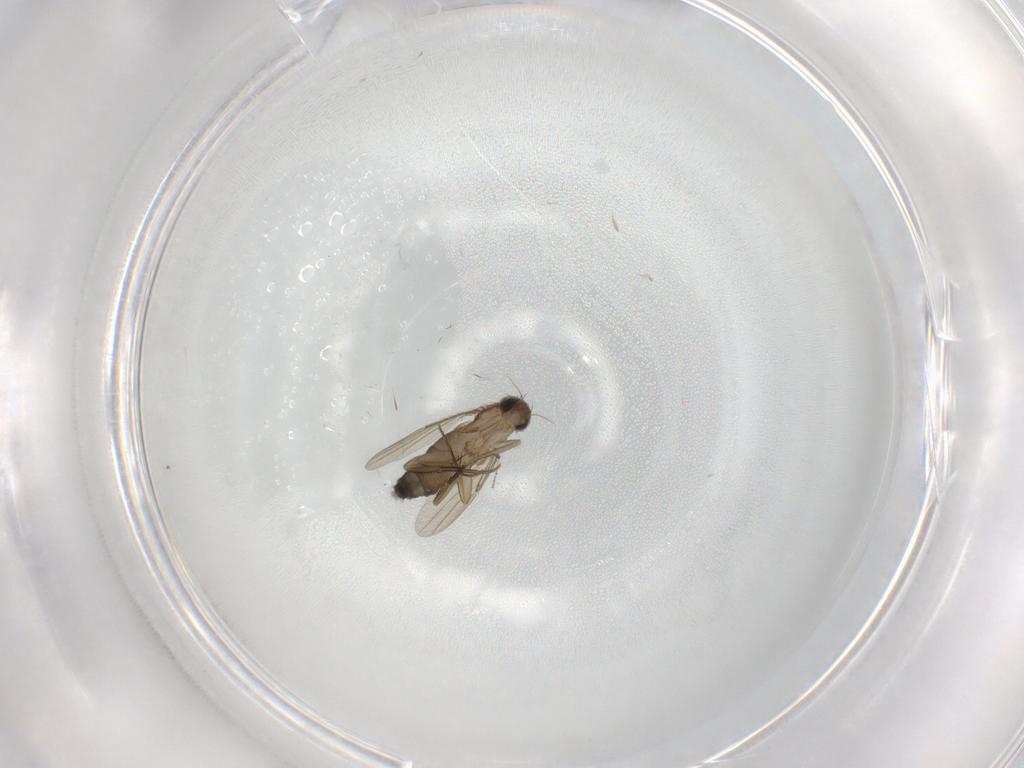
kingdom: Animalia
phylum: Arthropoda
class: Insecta
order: Diptera
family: Phoridae
